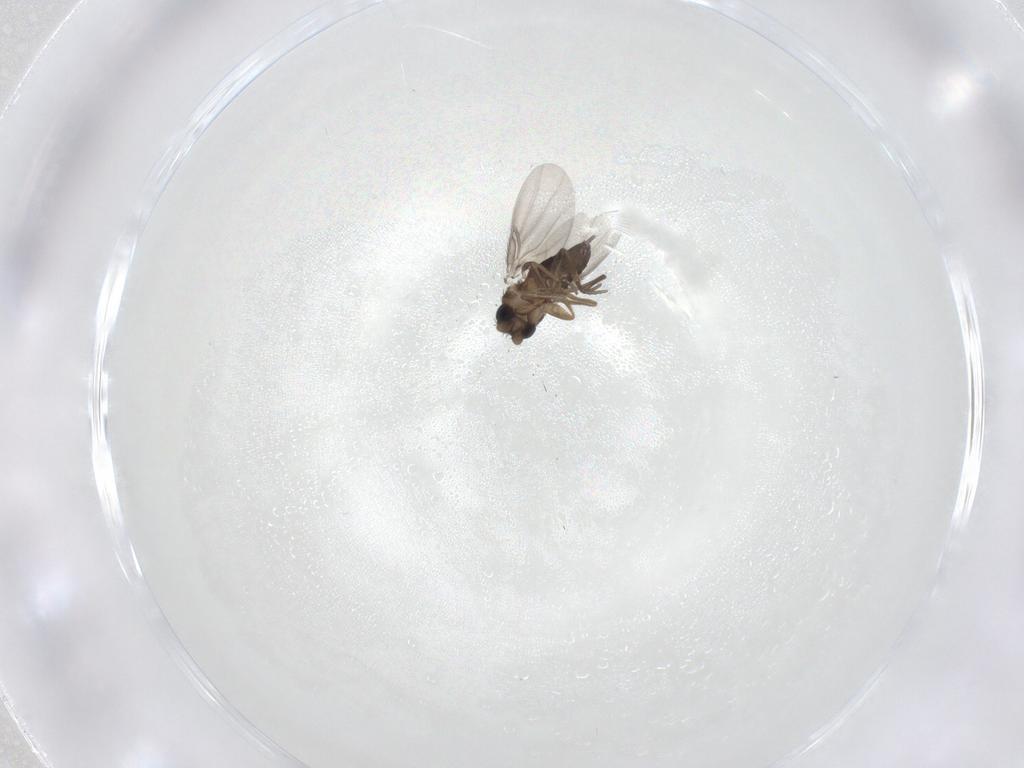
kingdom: Animalia
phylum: Arthropoda
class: Insecta
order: Diptera
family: Phoridae
